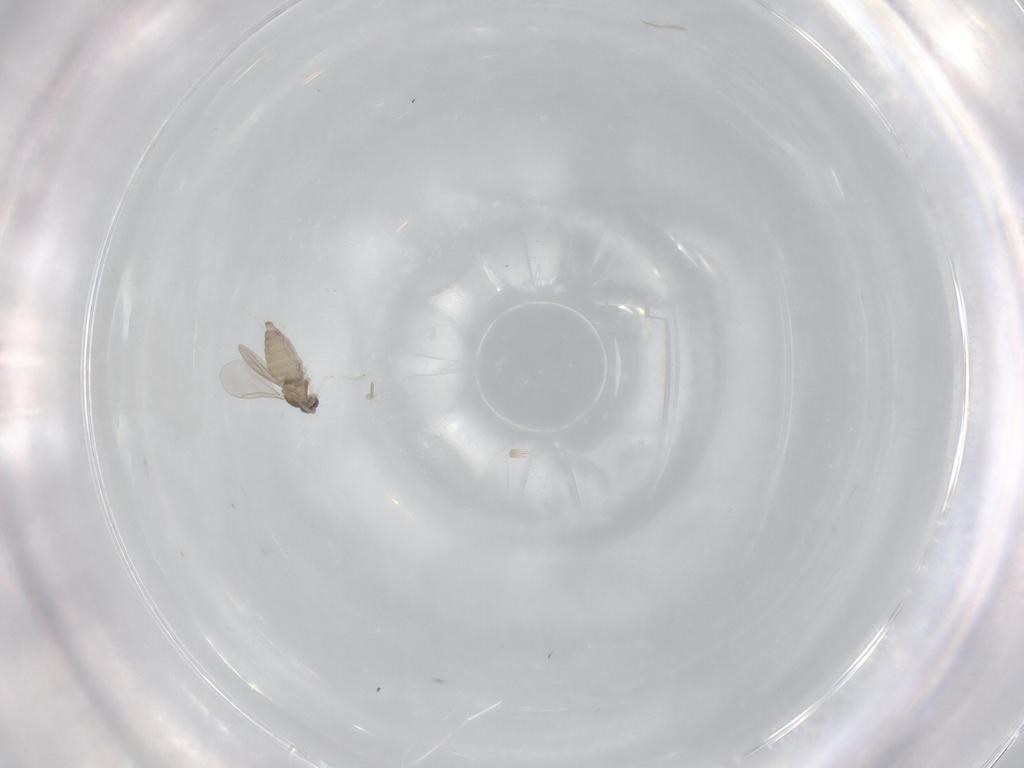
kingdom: Animalia
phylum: Arthropoda
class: Insecta
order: Diptera
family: Cecidomyiidae
